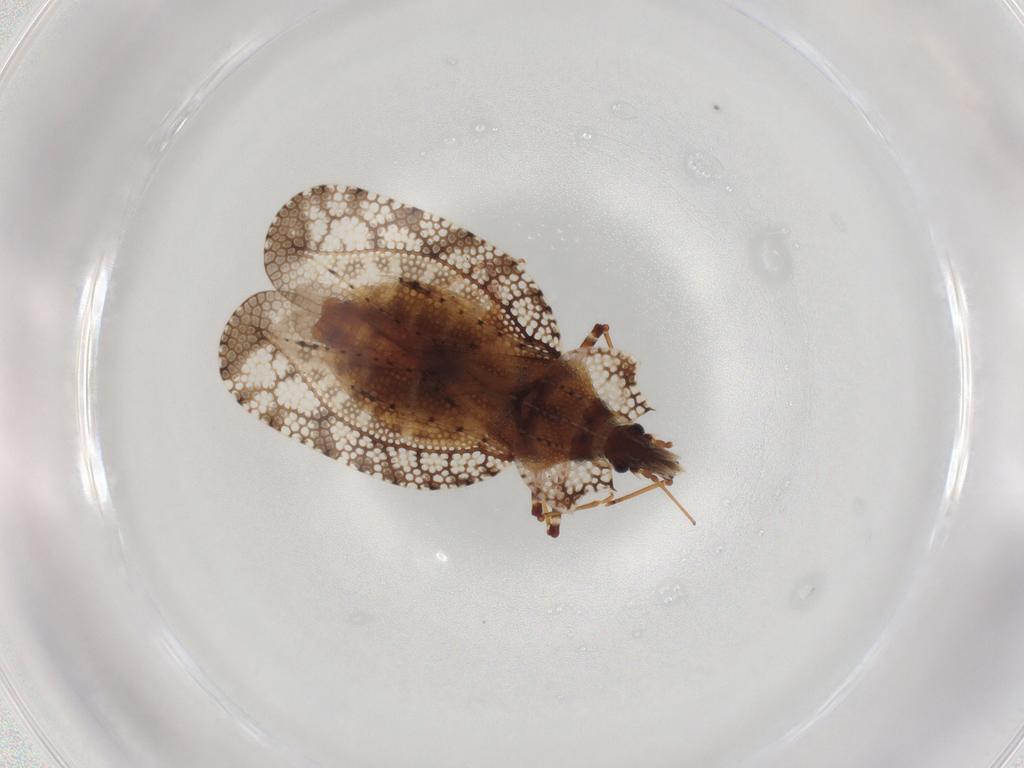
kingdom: Animalia
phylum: Arthropoda
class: Insecta
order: Hemiptera
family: Tingidae
